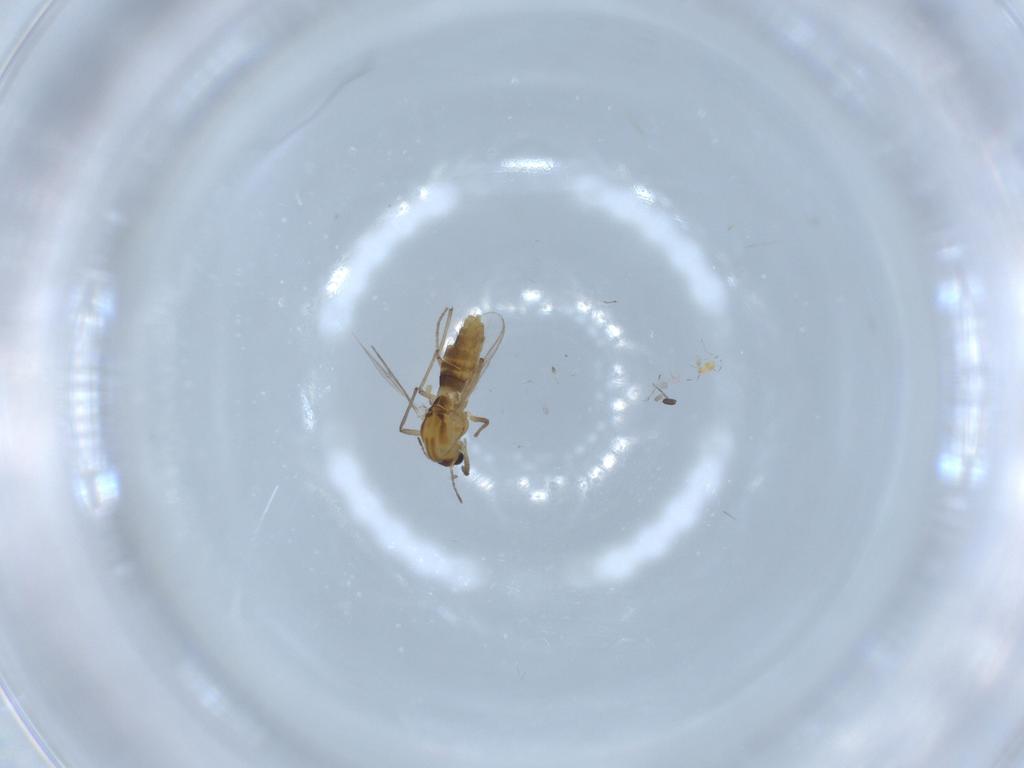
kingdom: Animalia
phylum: Arthropoda
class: Insecta
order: Diptera
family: Chironomidae
